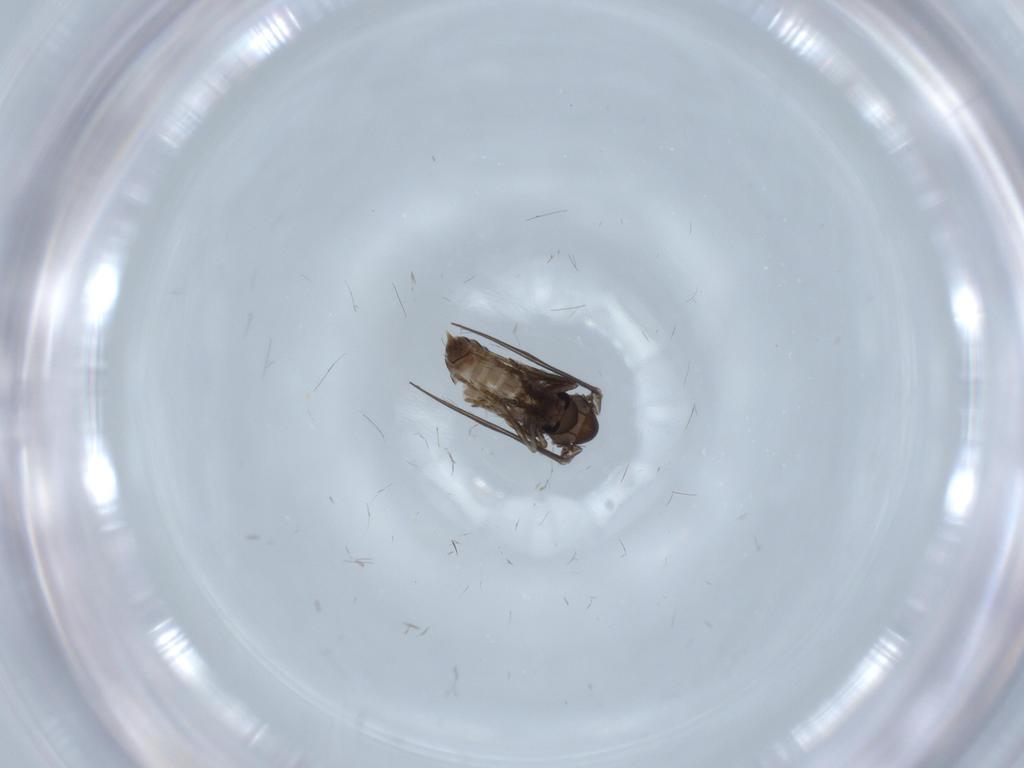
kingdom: Animalia
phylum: Arthropoda
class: Insecta
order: Diptera
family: Psychodidae
